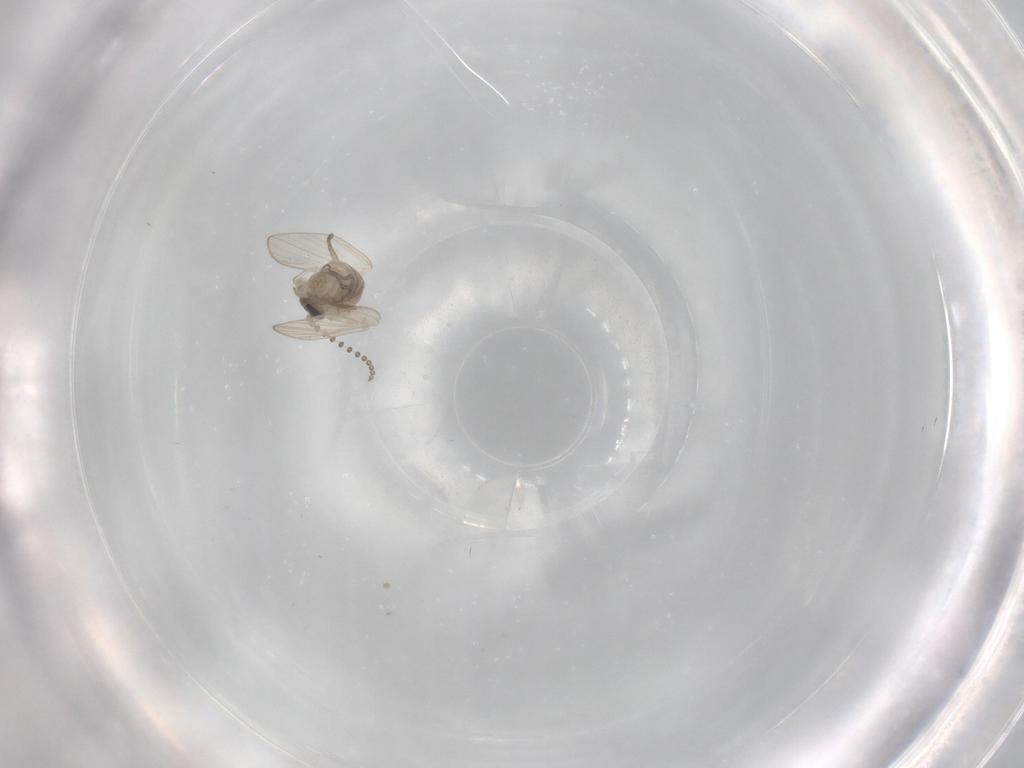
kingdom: Animalia
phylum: Arthropoda
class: Insecta
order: Diptera
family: Psychodidae
